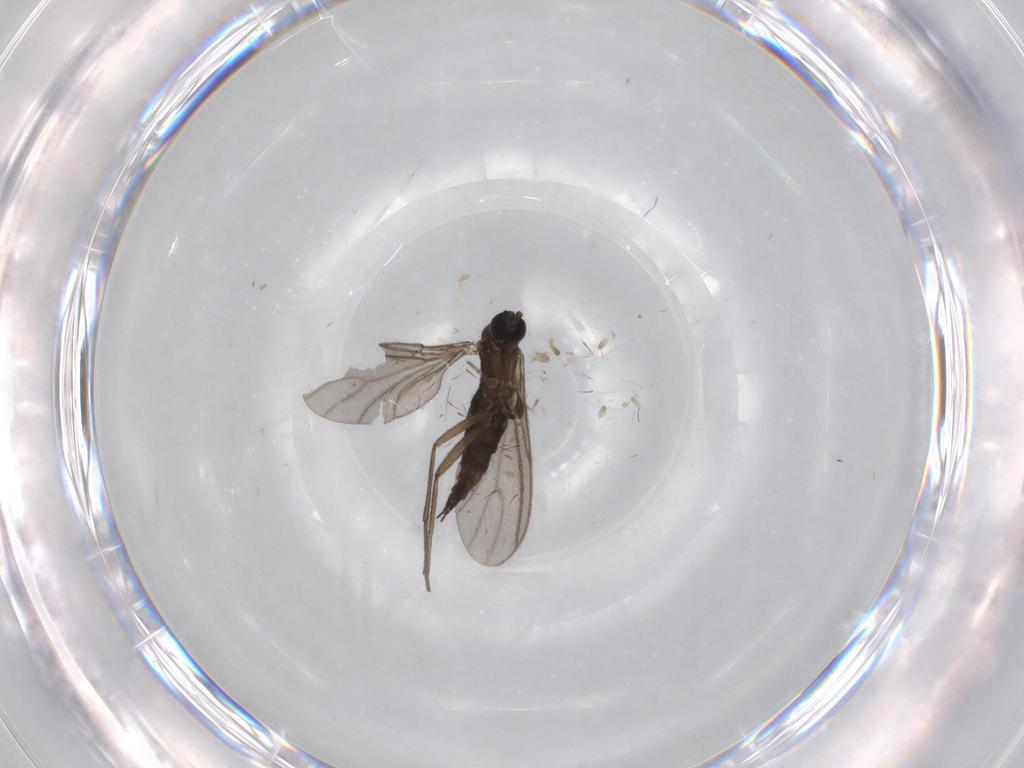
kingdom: Animalia
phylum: Arthropoda
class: Insecta
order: Diptera
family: Sciaridae
